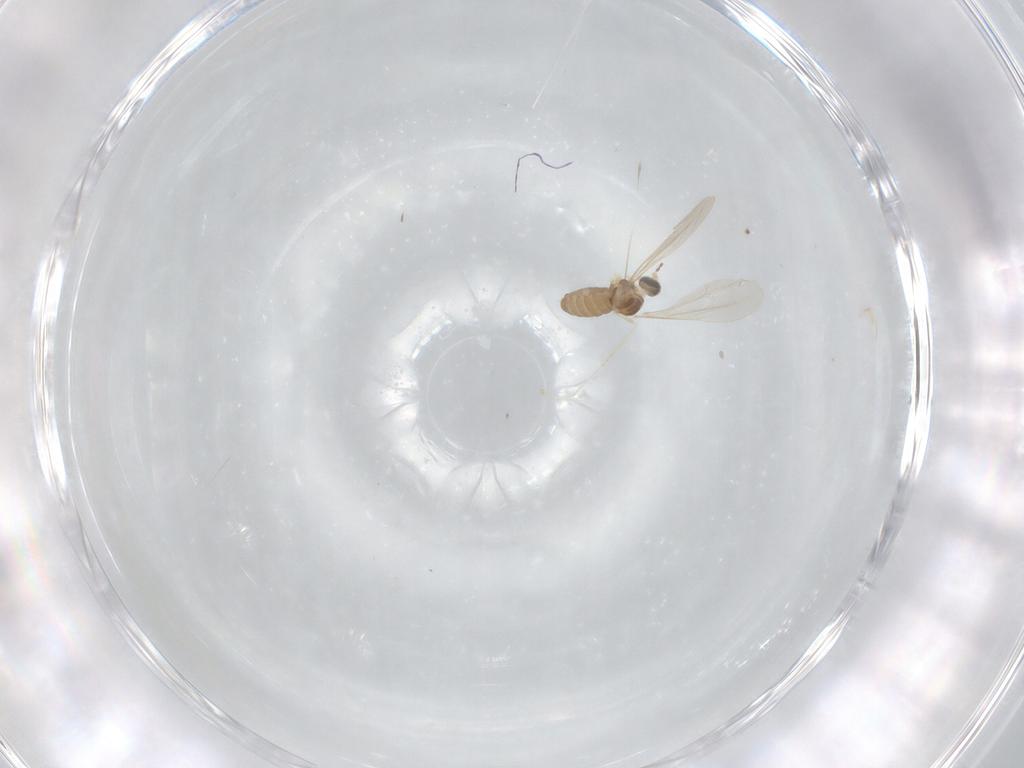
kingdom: Animalia
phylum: Arthropoda
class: Insecta
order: Diptera
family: Cecidomyiidae
